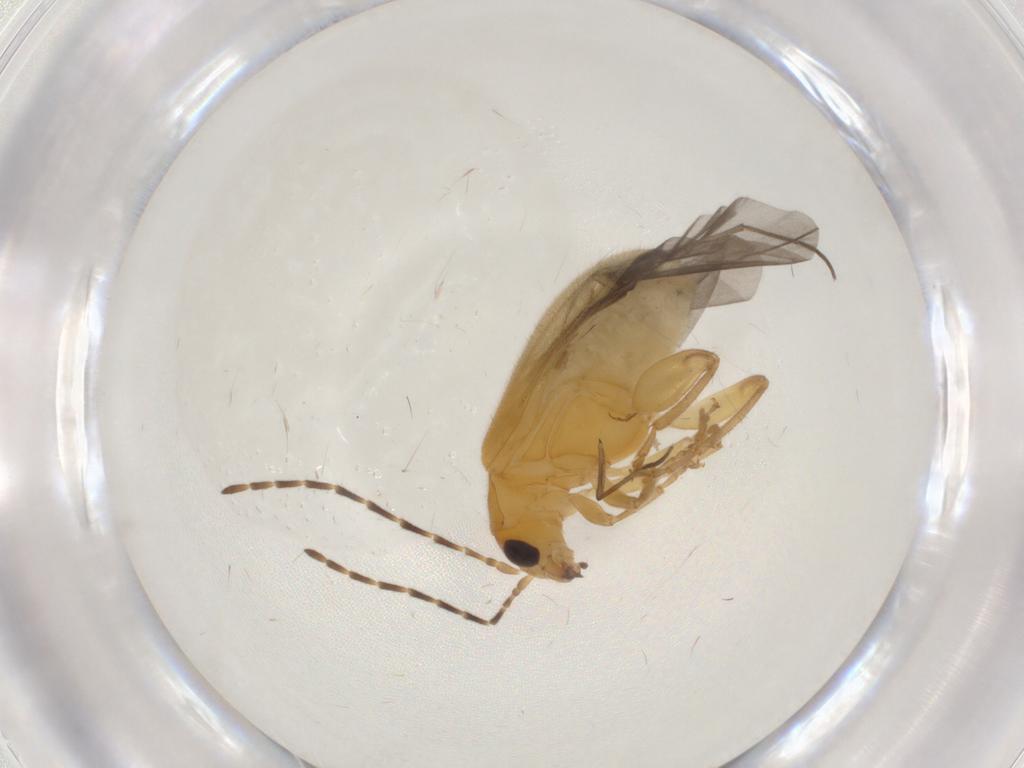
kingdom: Animalia
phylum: Arthropoda
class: Insecta
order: Coleoptera
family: Chrysomelidae
